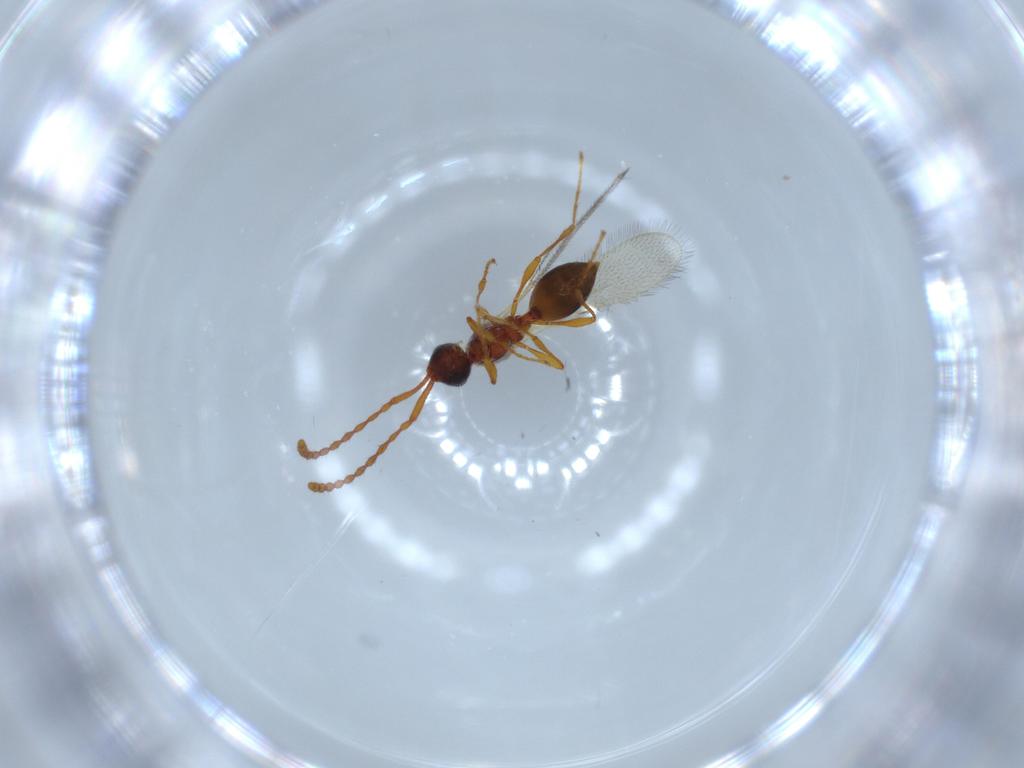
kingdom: Animalia
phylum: Arthropoda
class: Insecta
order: Hymenoptera
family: Diapriidae
